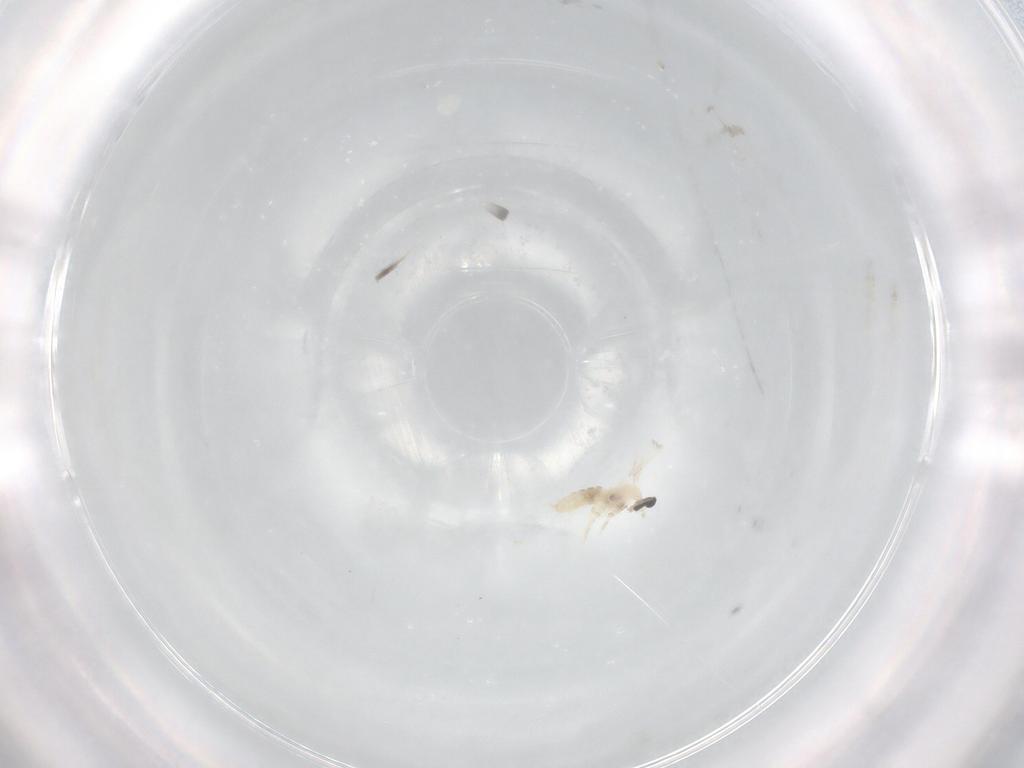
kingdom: Animalia
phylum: Arthropoda
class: Insecta
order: Diptera
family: Cecidomyiidae
